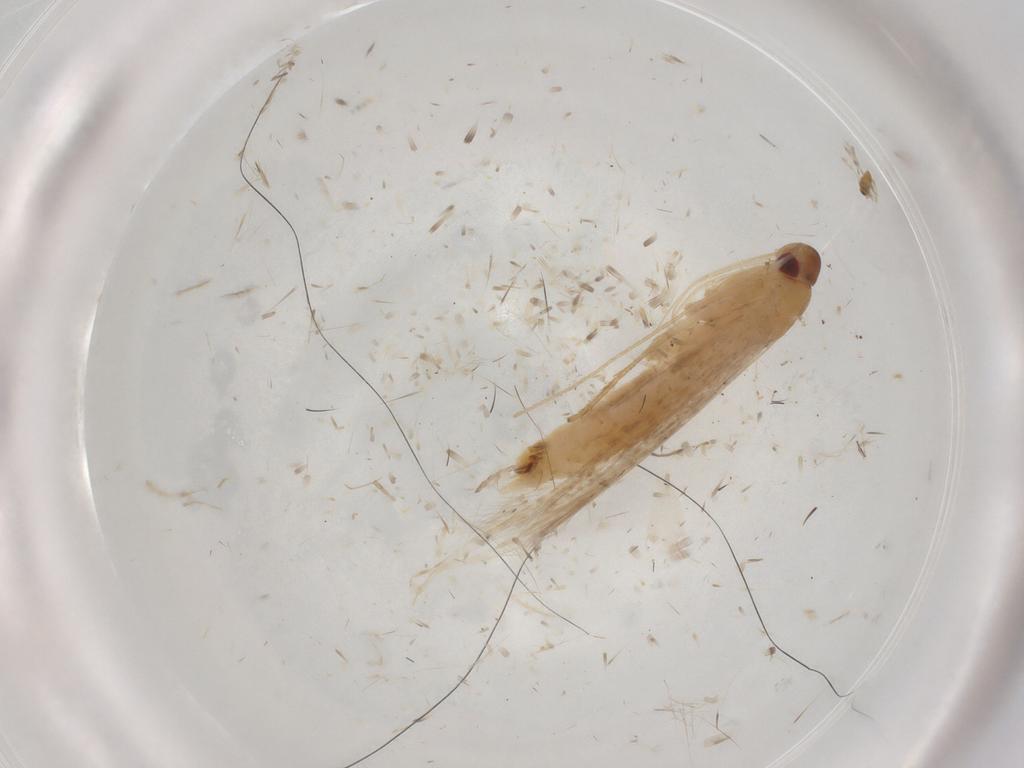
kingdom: Animalia
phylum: Arthropoda
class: Insecta
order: Lepidoptera
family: Cosmopterigidae
